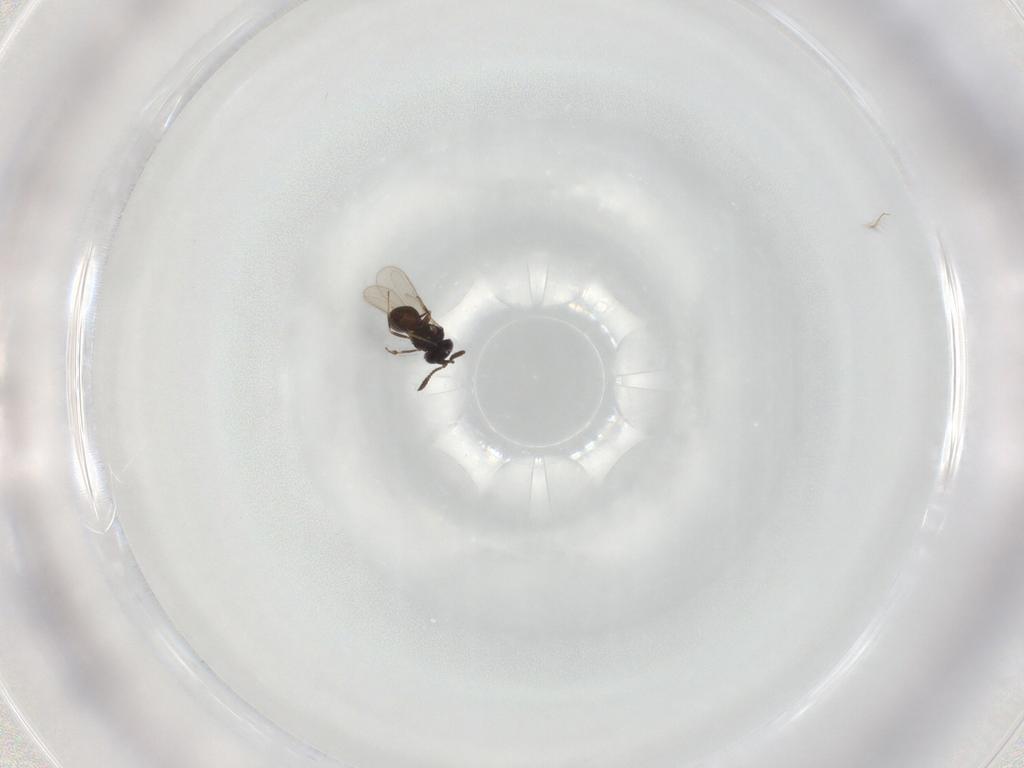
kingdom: Animalia
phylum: Arthropoda
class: Insecta
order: Hymenoptera
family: Scelionidae
